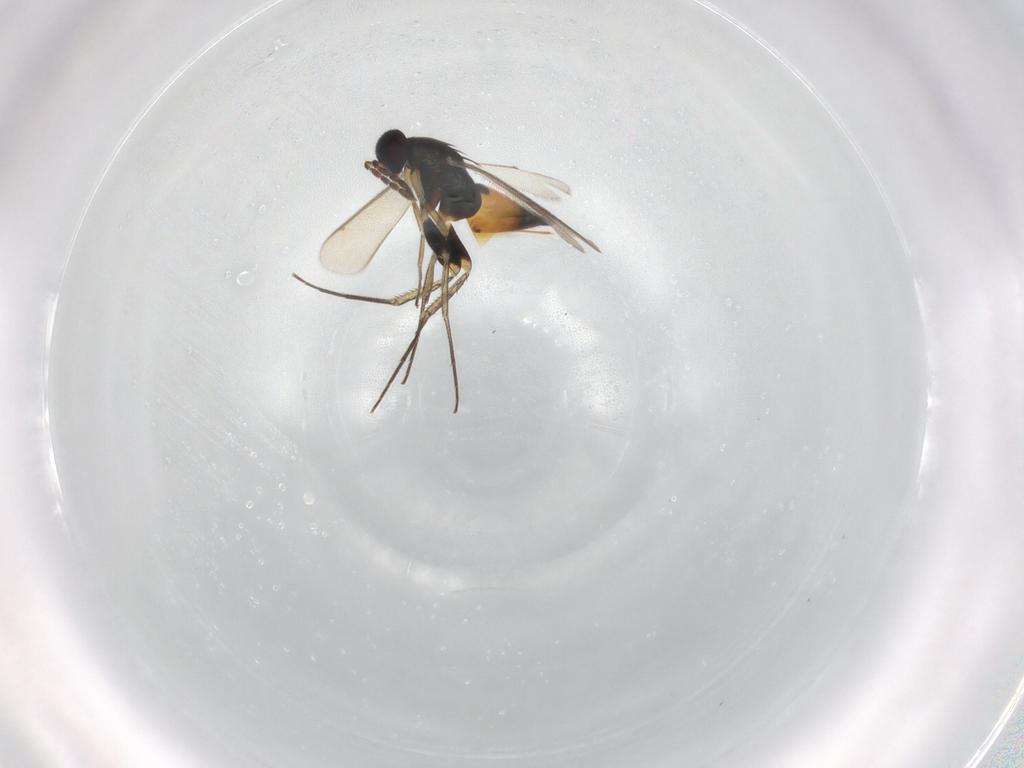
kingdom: Animalia
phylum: Arthropoda
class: Insecta
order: Hymenoptera
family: Eulophidae
